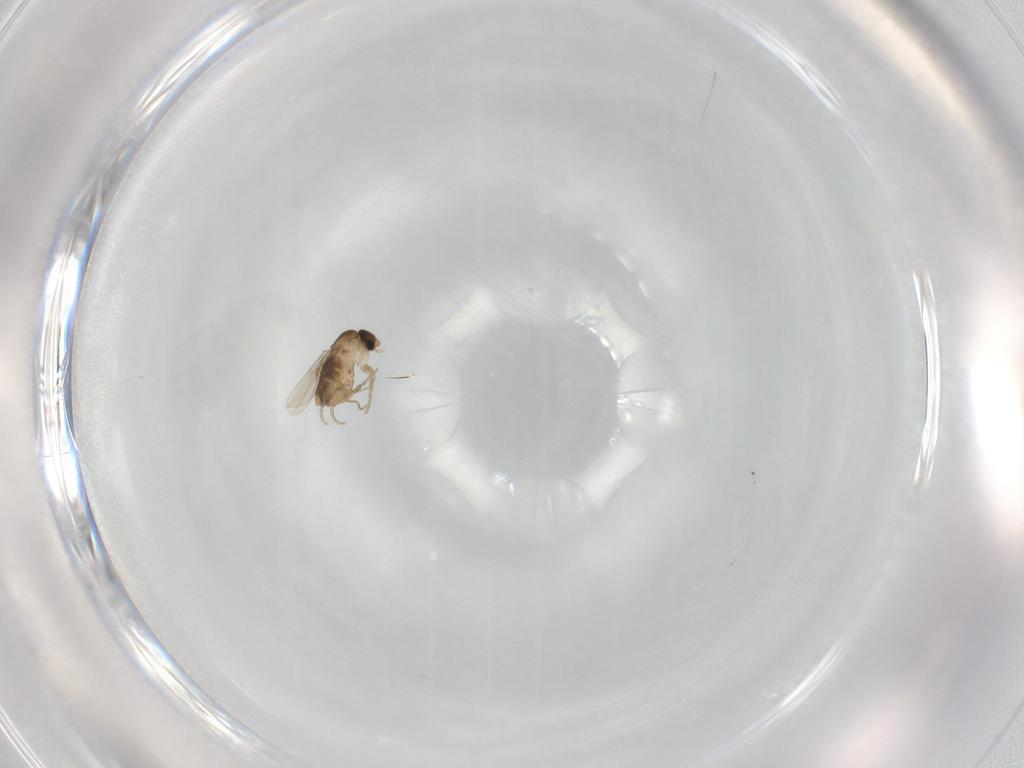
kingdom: Animalia
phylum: Arthropoda
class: Insecta
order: Diptera
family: Phoridae
